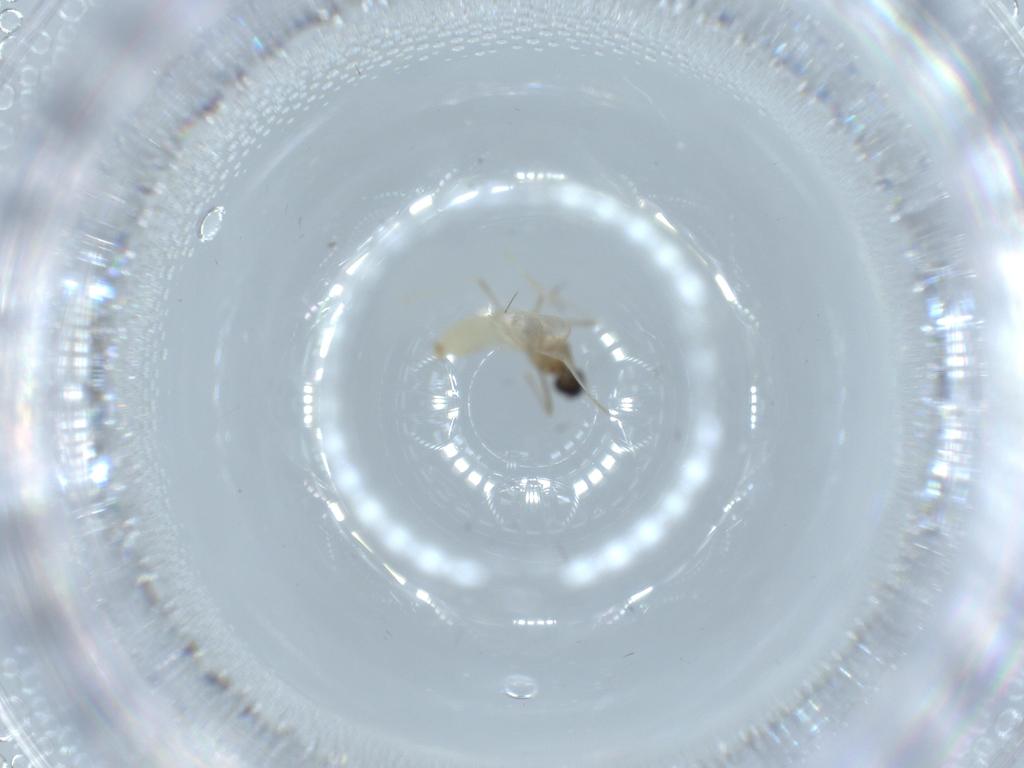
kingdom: Animalia
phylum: Arthropoda
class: Insecta
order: Diptera
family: Cecidomyiidae
